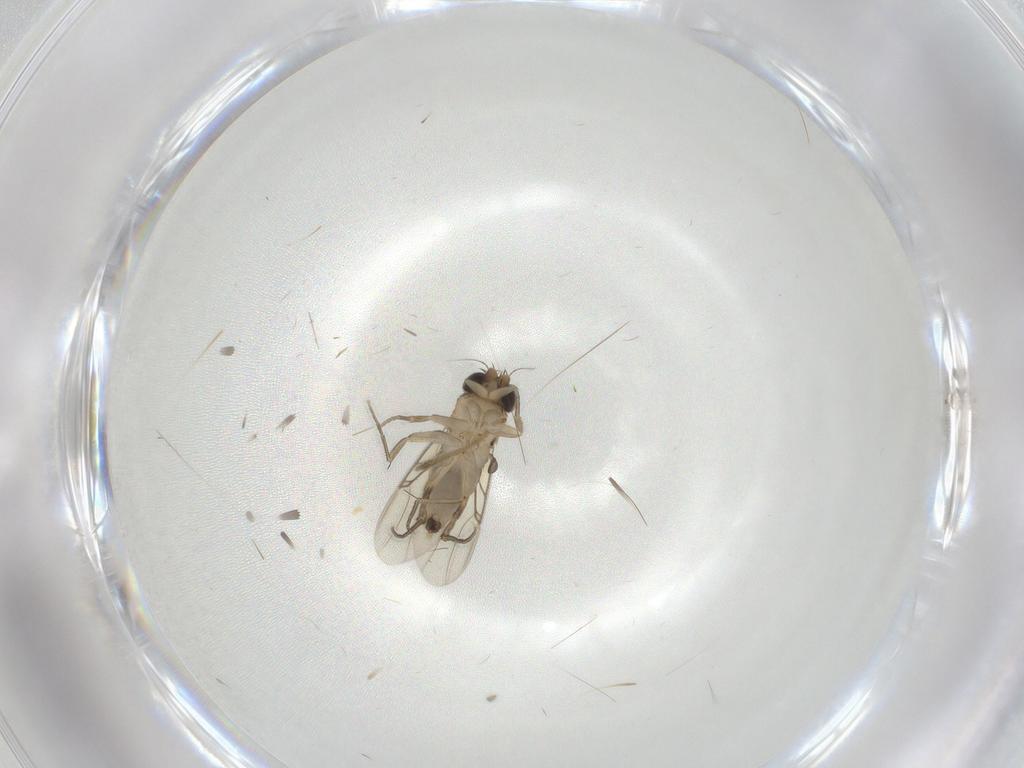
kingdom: Animalia
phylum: Arthropoda
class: Insecta
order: Diptera
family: Phoridae
